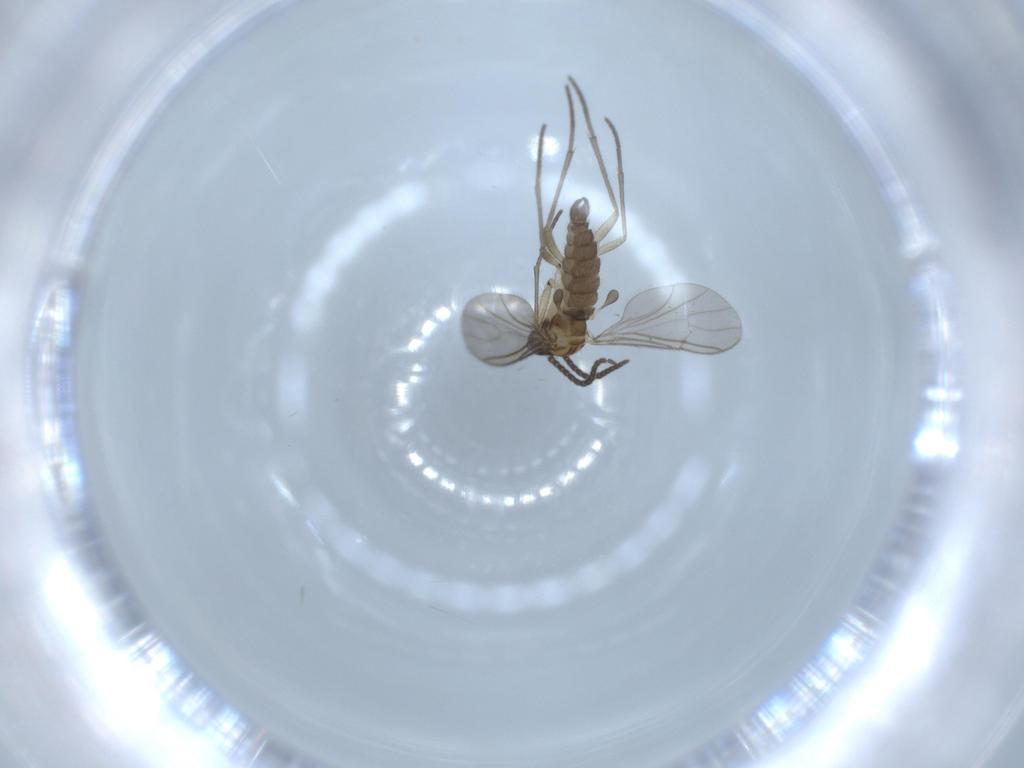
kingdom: Animalia
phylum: Arthropoda
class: Insecta
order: Diptera
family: Sciaridae
